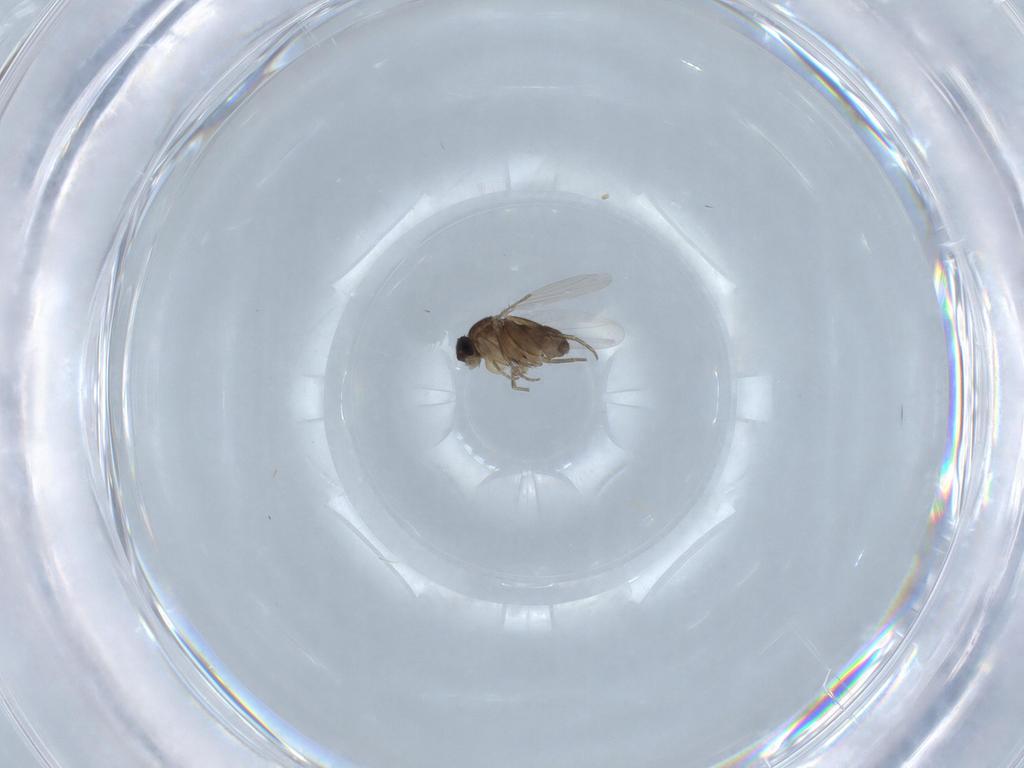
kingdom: Animalia
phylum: Arthropoda
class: Insecta
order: Diptera
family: Phoridae
